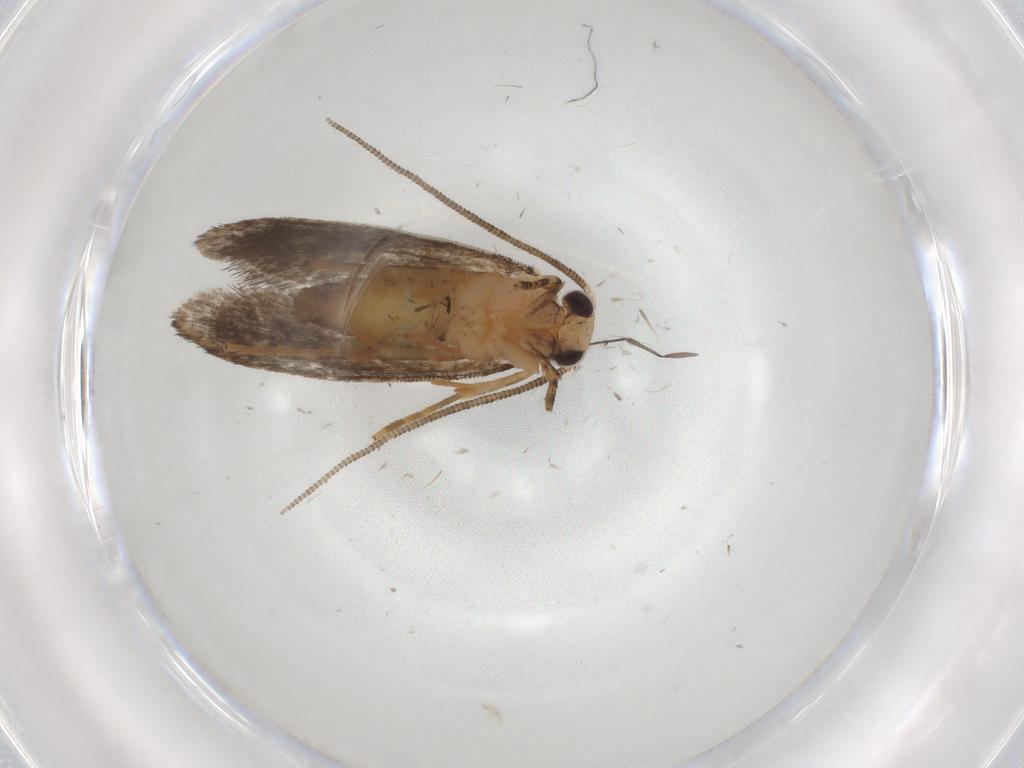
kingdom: Animalia
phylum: Arthropoda
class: Insecta
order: Lepidoptera
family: Tineidae
